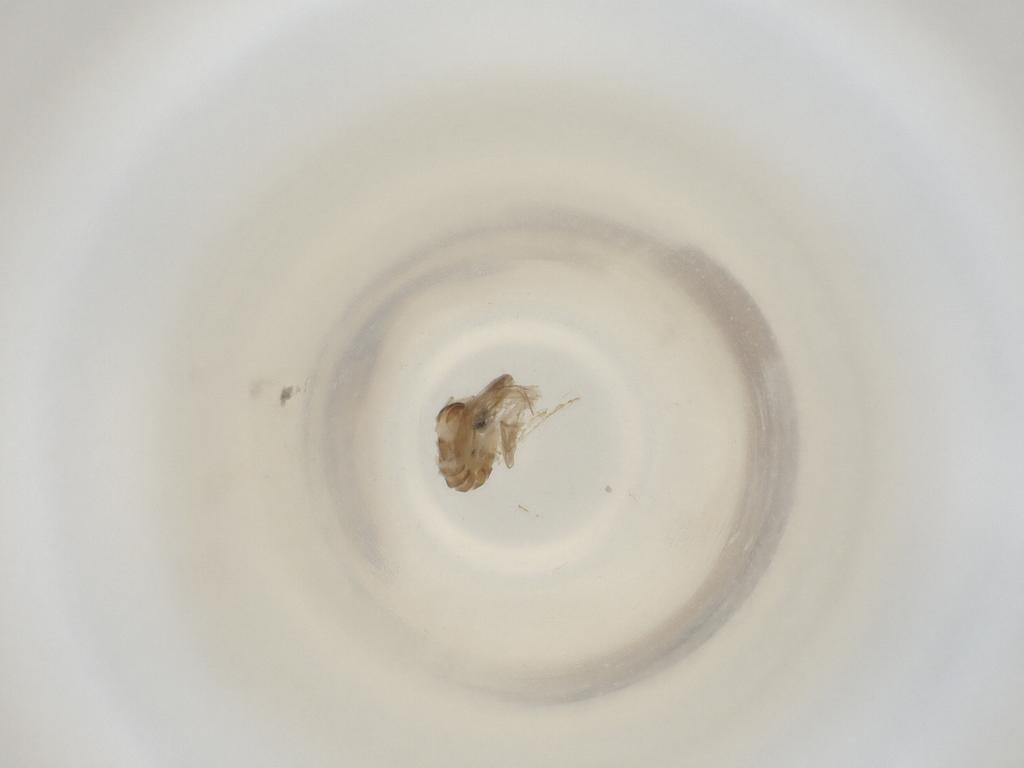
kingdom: Animalia
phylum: Arthropoda
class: Insecta
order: Diptera
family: Cecidomyiidae
